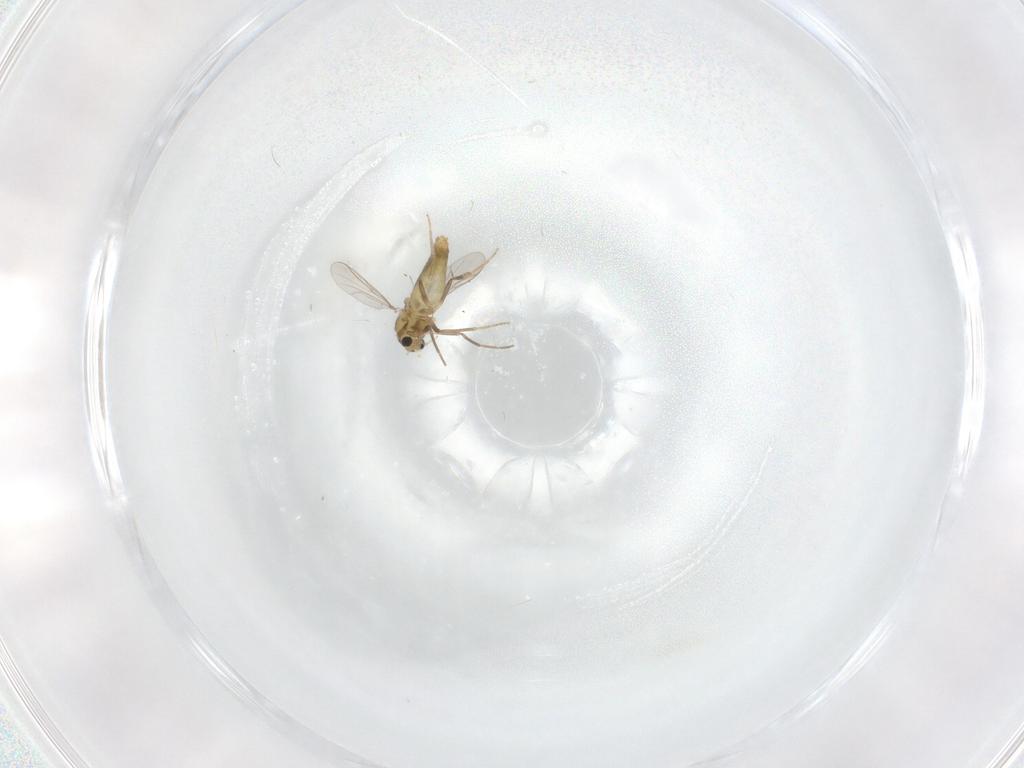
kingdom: Animalia
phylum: Arthropoda
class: Insecta
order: Diptera
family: Chironomidae
